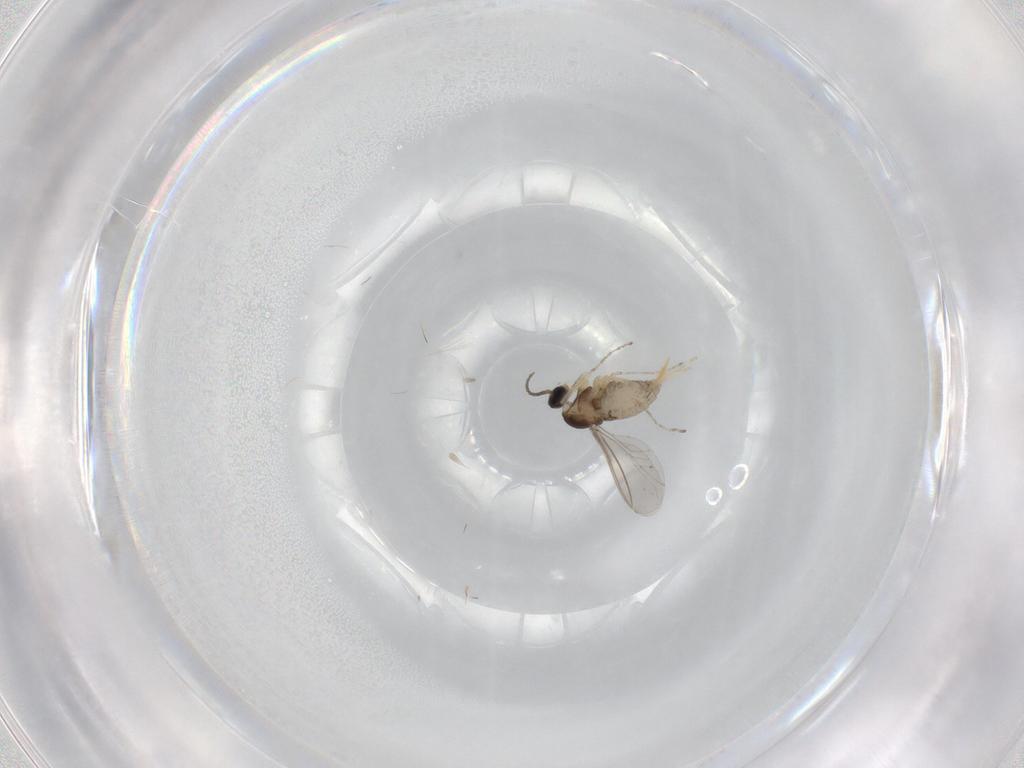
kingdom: Animalia
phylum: Arthropoda
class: Insecta
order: Diptera
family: Cecidomyiidae
